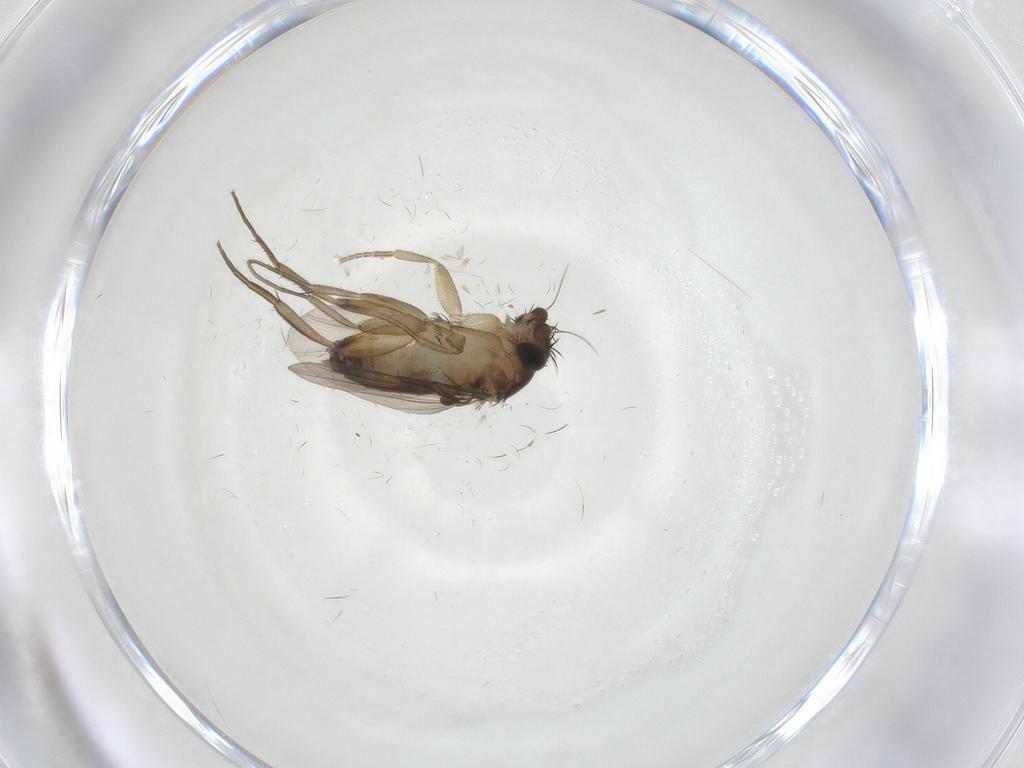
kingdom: Animalia
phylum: Arthropoda
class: Insecta
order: Diptera
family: Phoridae
